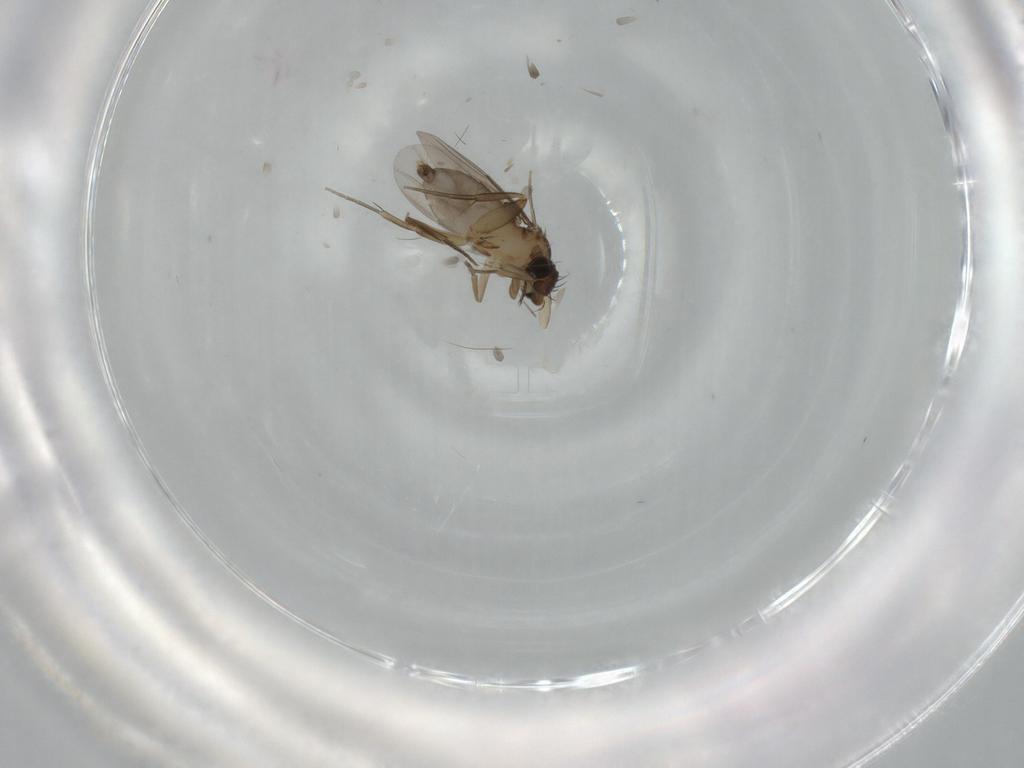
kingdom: Animalia
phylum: Arthropoda
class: Insecta
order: Diptera
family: Phoridae
